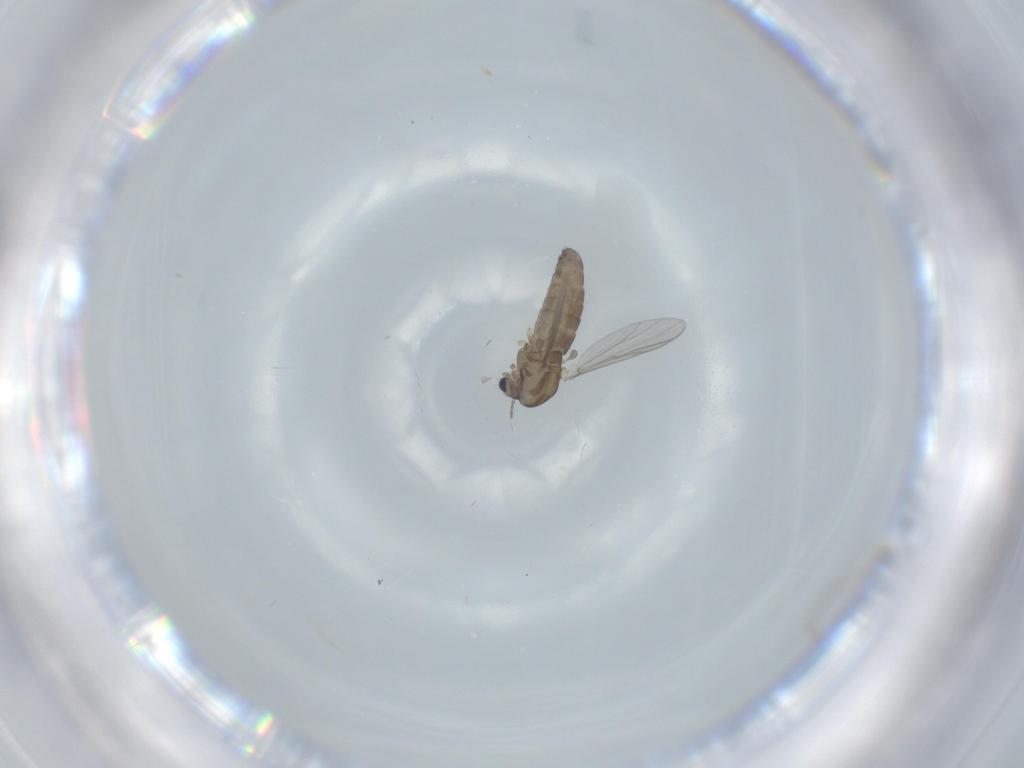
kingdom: Animalia
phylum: Arthropoda
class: Insecta
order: Diptera
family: Chironomidae
